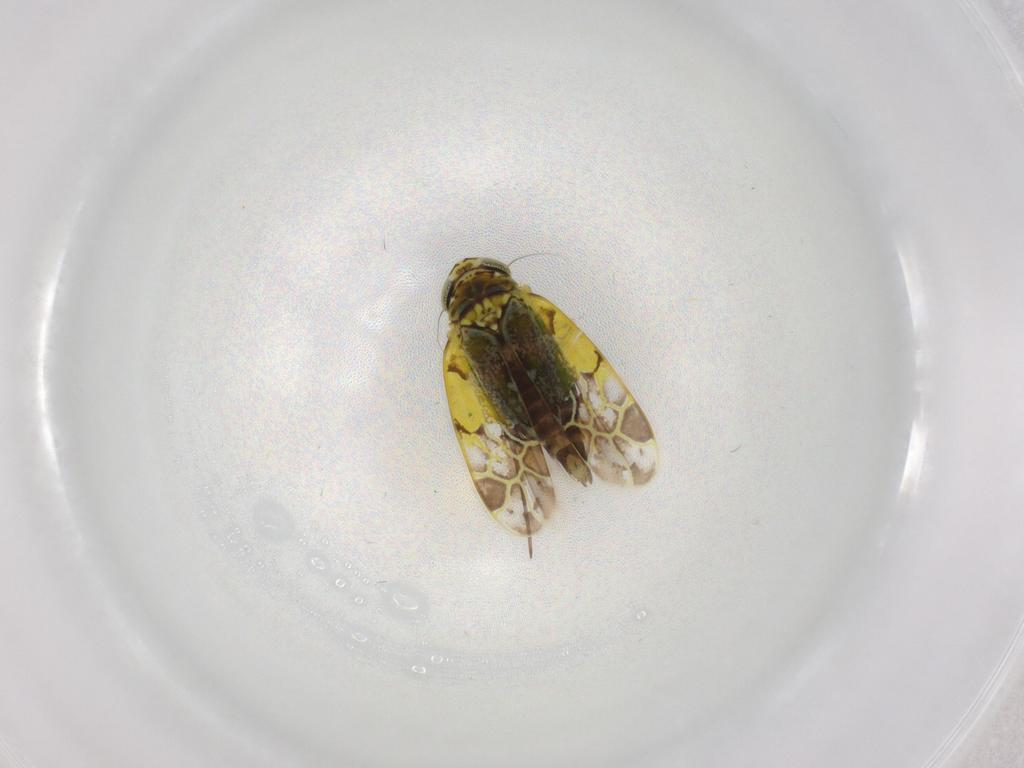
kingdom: Animalia
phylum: Arthropoda
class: Insecta
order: Hemiptera
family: Cicadellidae
